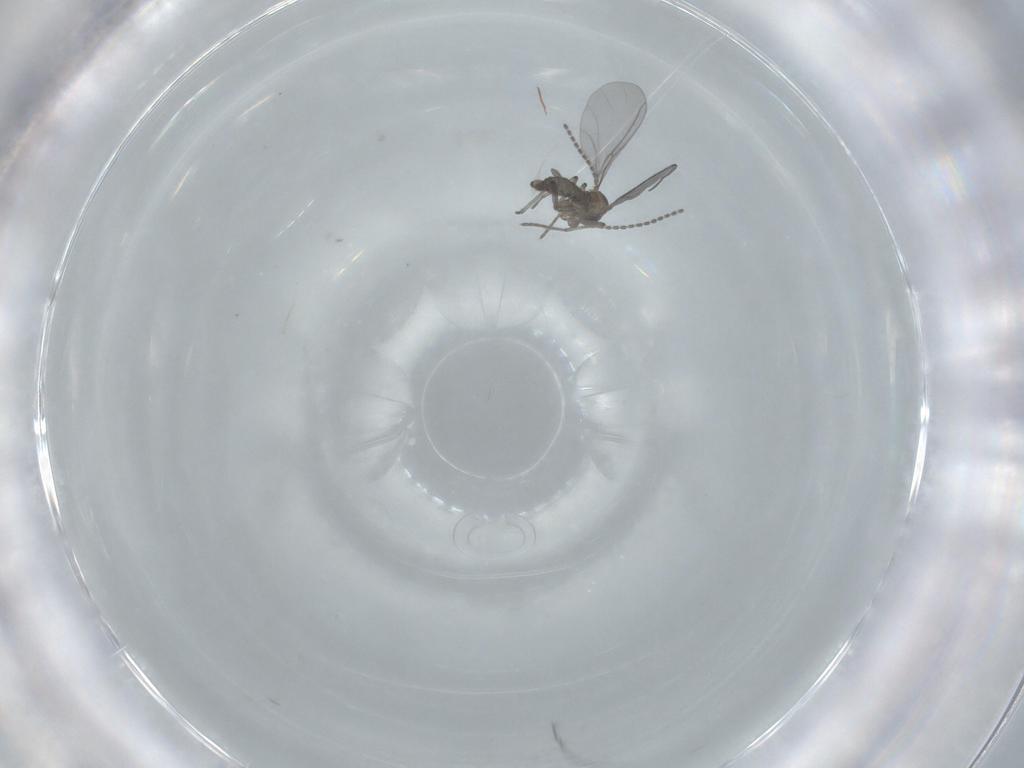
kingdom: Animalia
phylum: Arthropoda
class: Insecta
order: Diptera
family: Sciaridae
